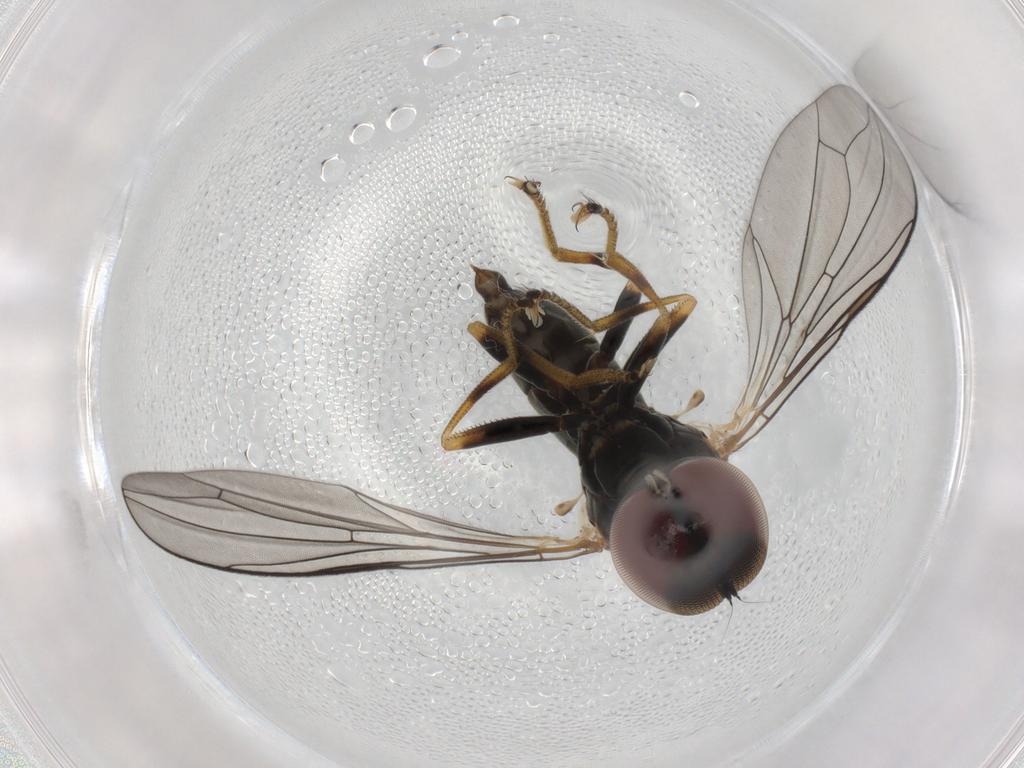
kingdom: Animalia
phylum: Arthropoda
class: Insecta
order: Diptera
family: Pipunculidae
